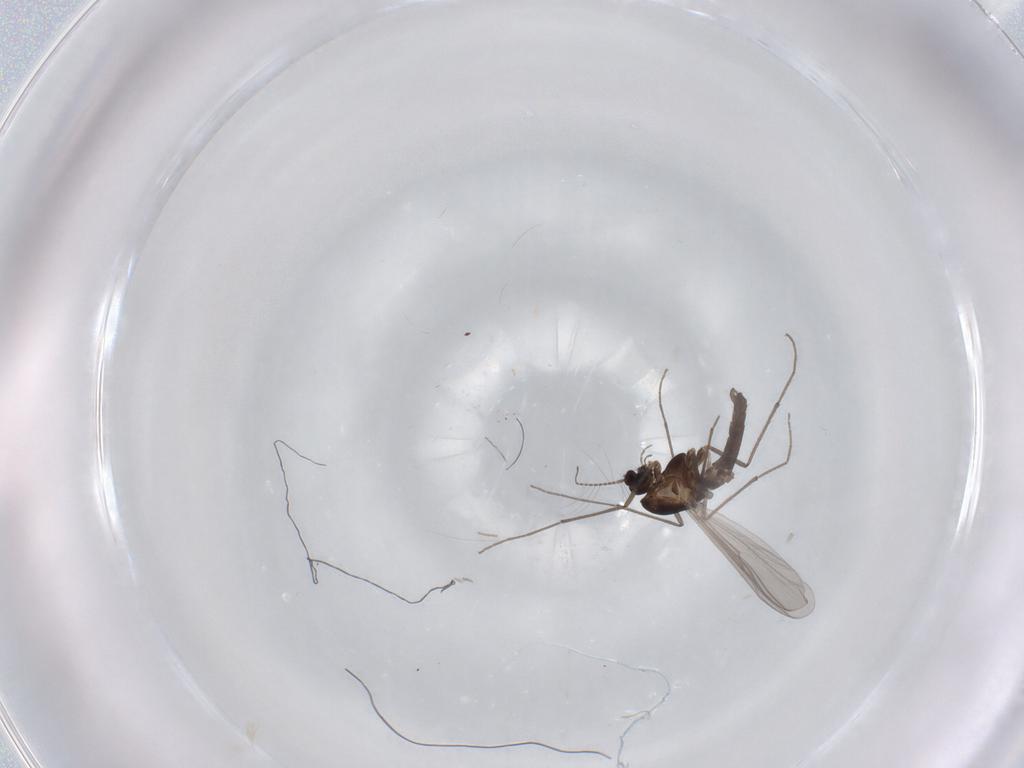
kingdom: Animalia
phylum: Arthropoda
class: Insecta
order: Diptera
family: Chironomidae
